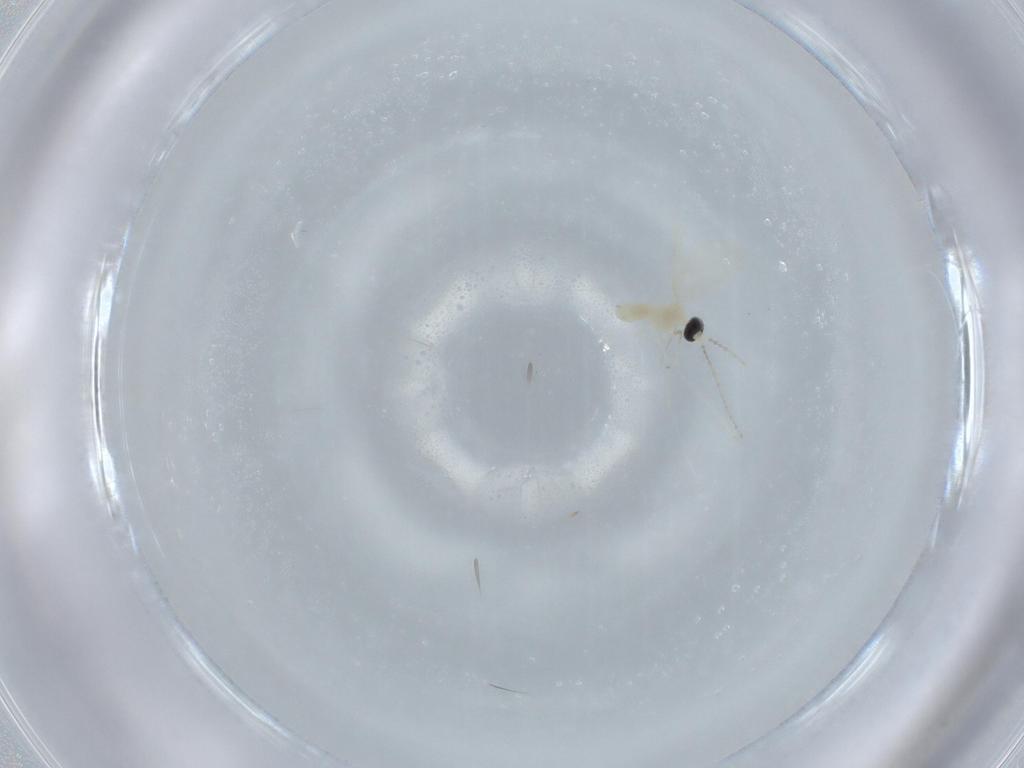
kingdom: Animalia
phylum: Arthropoda
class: Insecta
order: Diptera
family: Cecidomyiidae
